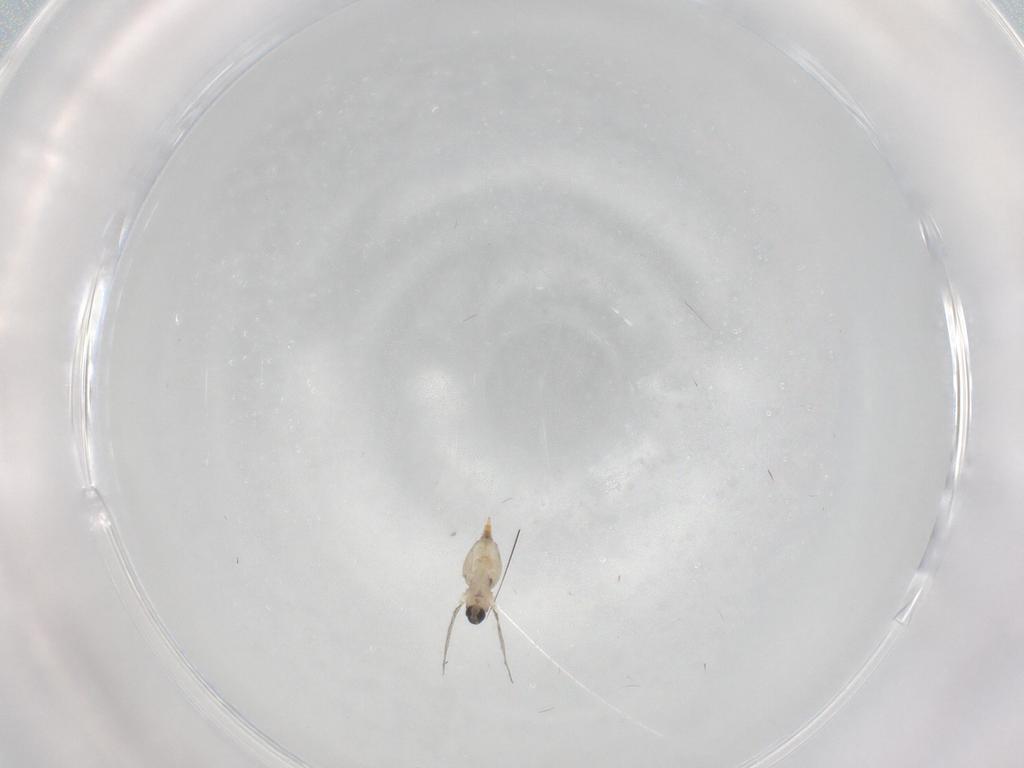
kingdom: Animalia
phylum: Arthropoda
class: Insecta
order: Diptera
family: Cecidomyiidae
